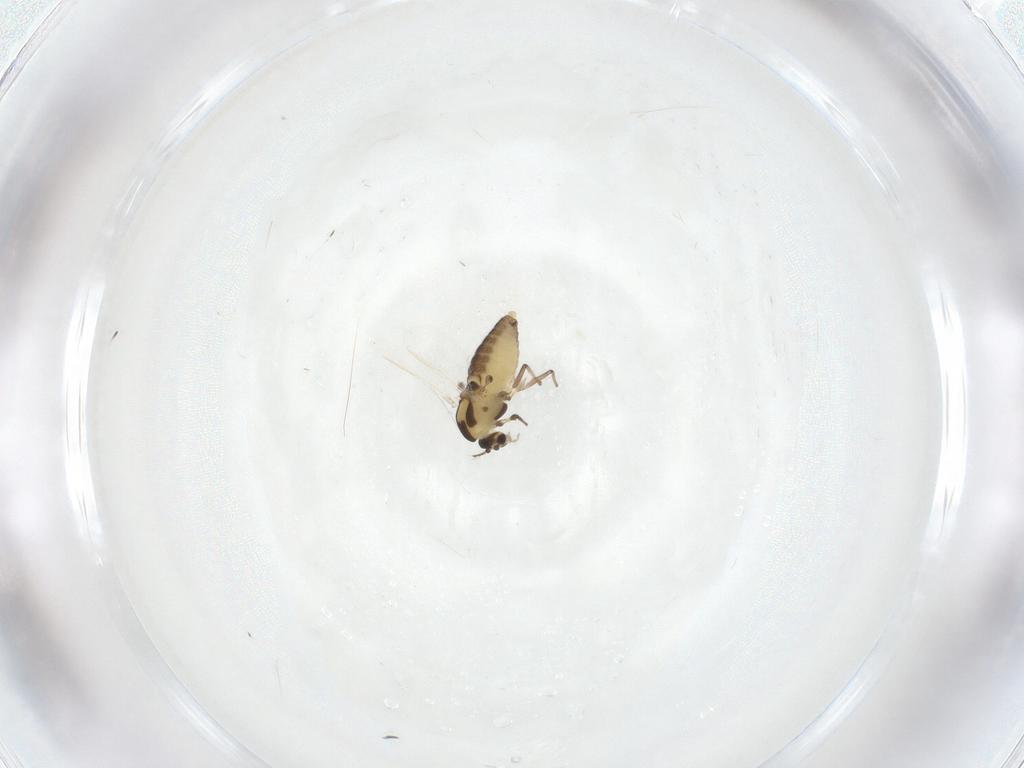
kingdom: Animalia
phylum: Arthropoda
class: Insecta
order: Diptera
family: Chironomidae
